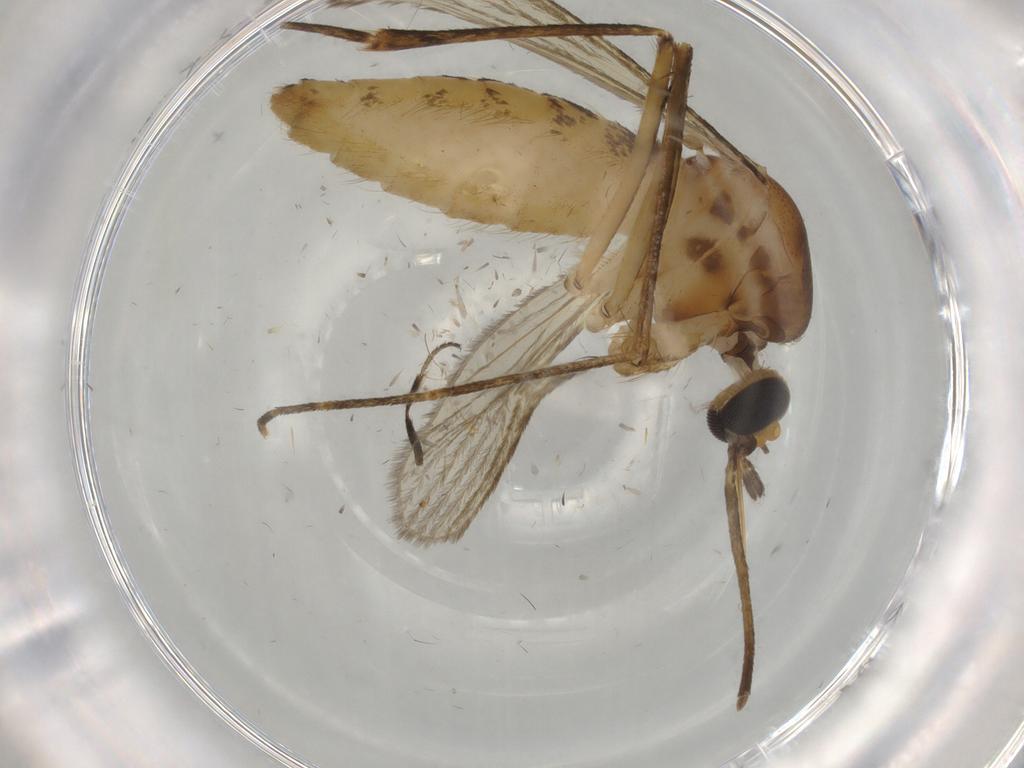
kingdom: Animalia
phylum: Arthropoda
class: Insecta
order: Diptera
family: Culicidae
